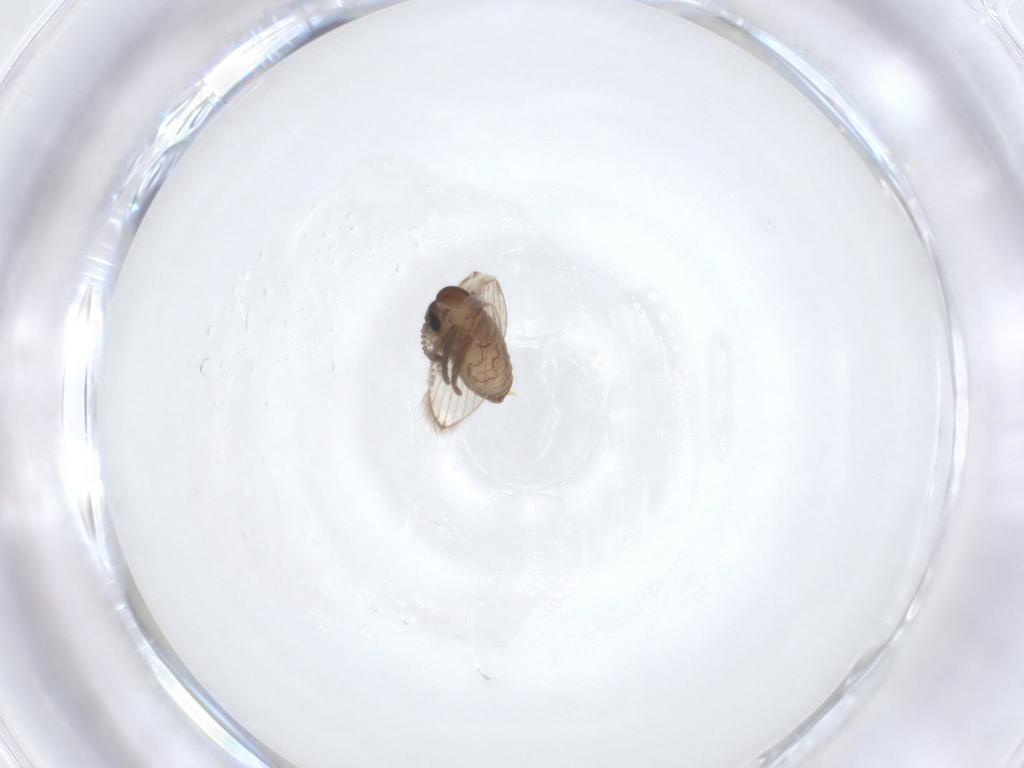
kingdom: Animalia
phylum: Arthropoda
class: Insecta
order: Diptera
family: Psychodidae
